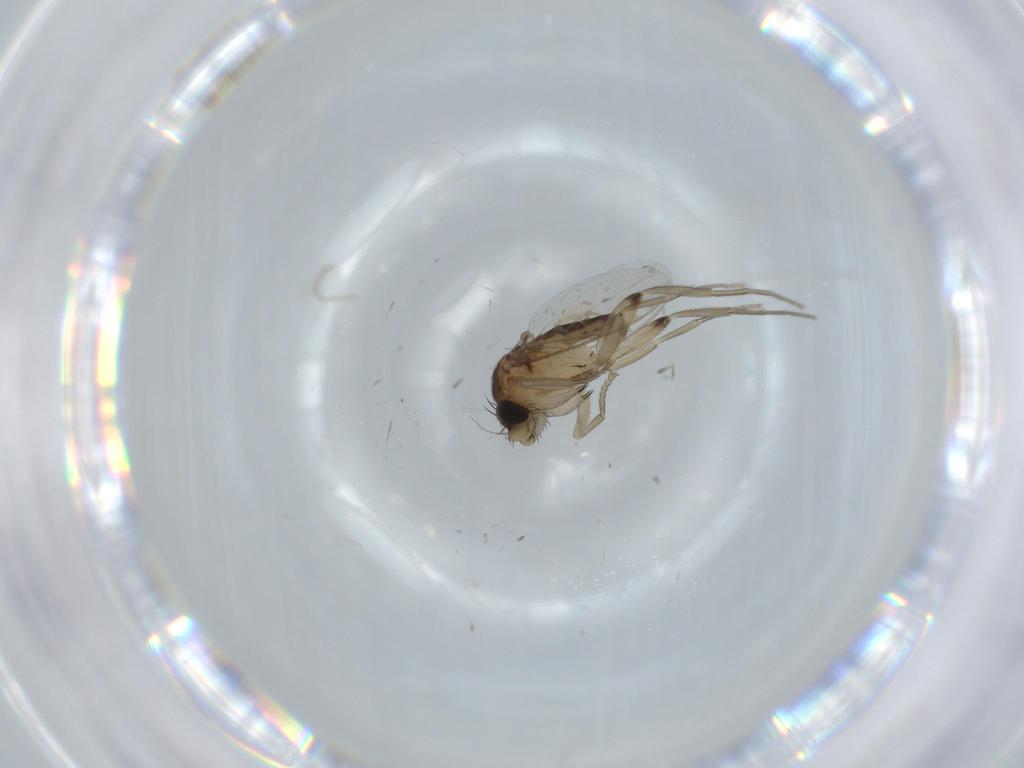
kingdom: Animalia
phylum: Arthropoda
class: Insecta
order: Diptera
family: Phoridae
